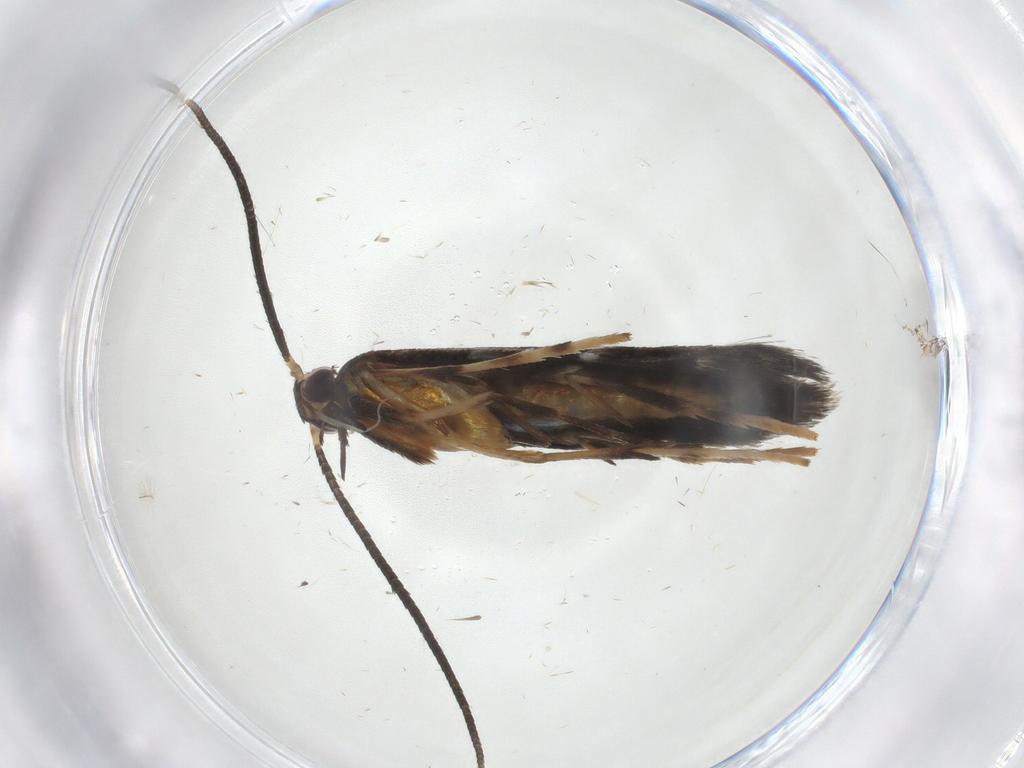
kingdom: Animalia
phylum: Arthropoda
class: Insecta
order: Lepidoptera
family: Gracillariidae
